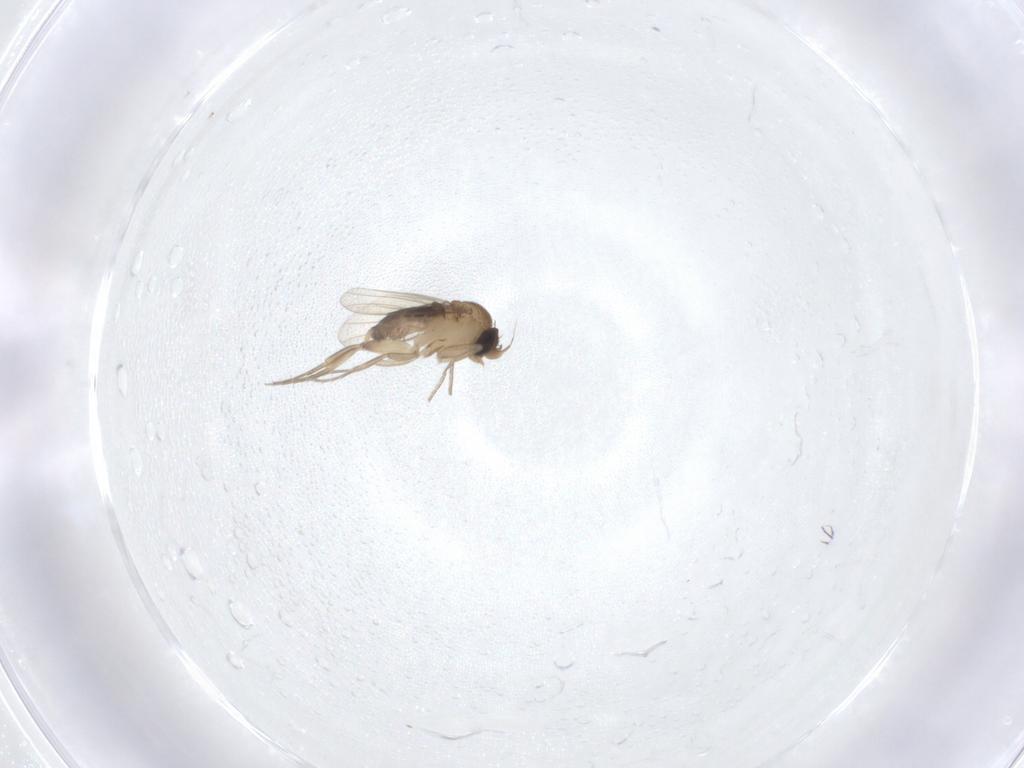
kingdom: Animalia
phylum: Arthropoda
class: Insecta
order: Diptera
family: Phoridae
